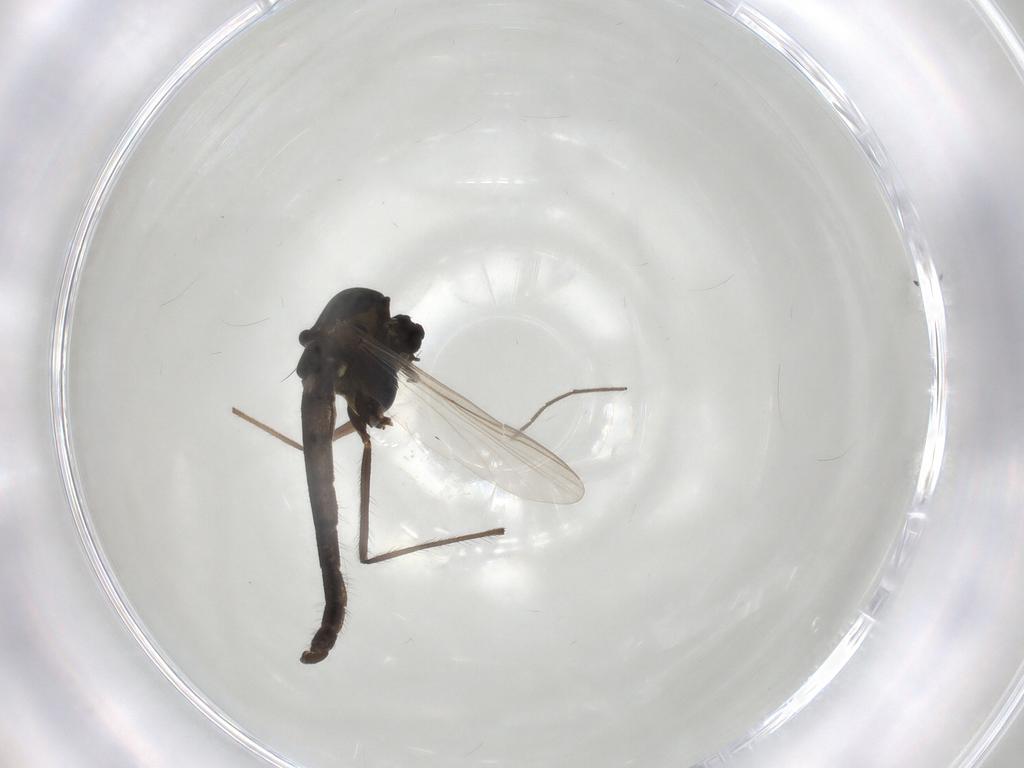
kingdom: Animalia
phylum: Arthropoda
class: Insecta
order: Diptera
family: Chironomidae
